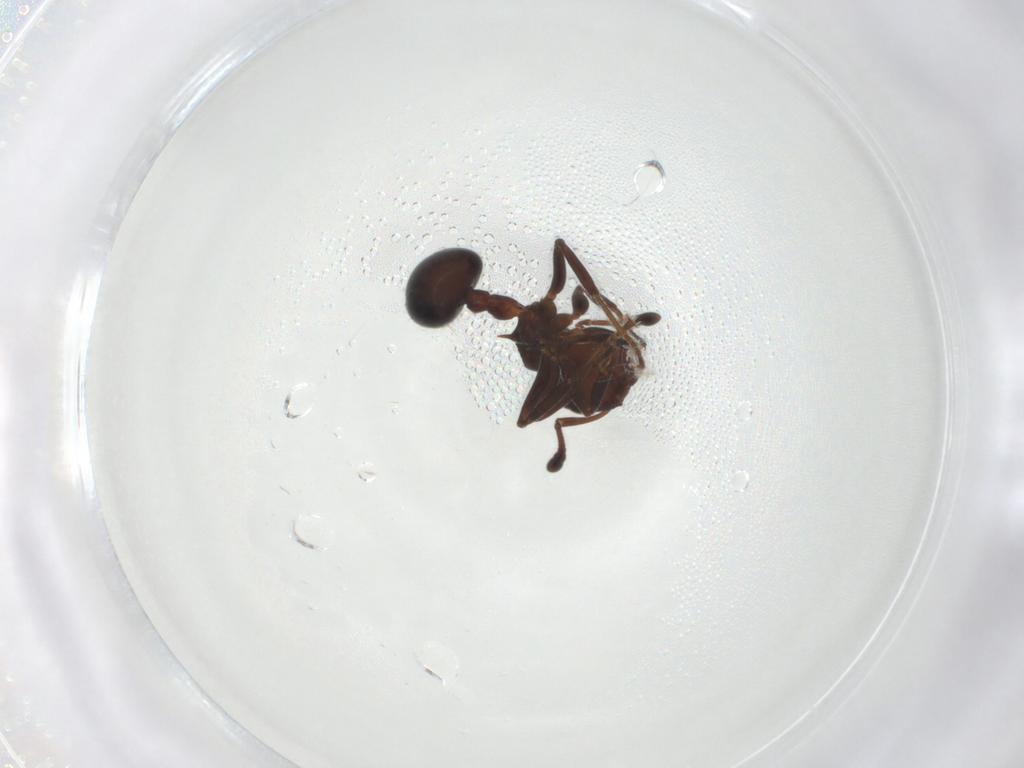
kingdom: Animalia
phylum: Arthropoda
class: Insecta
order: Hymenoptera
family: Formicidae
